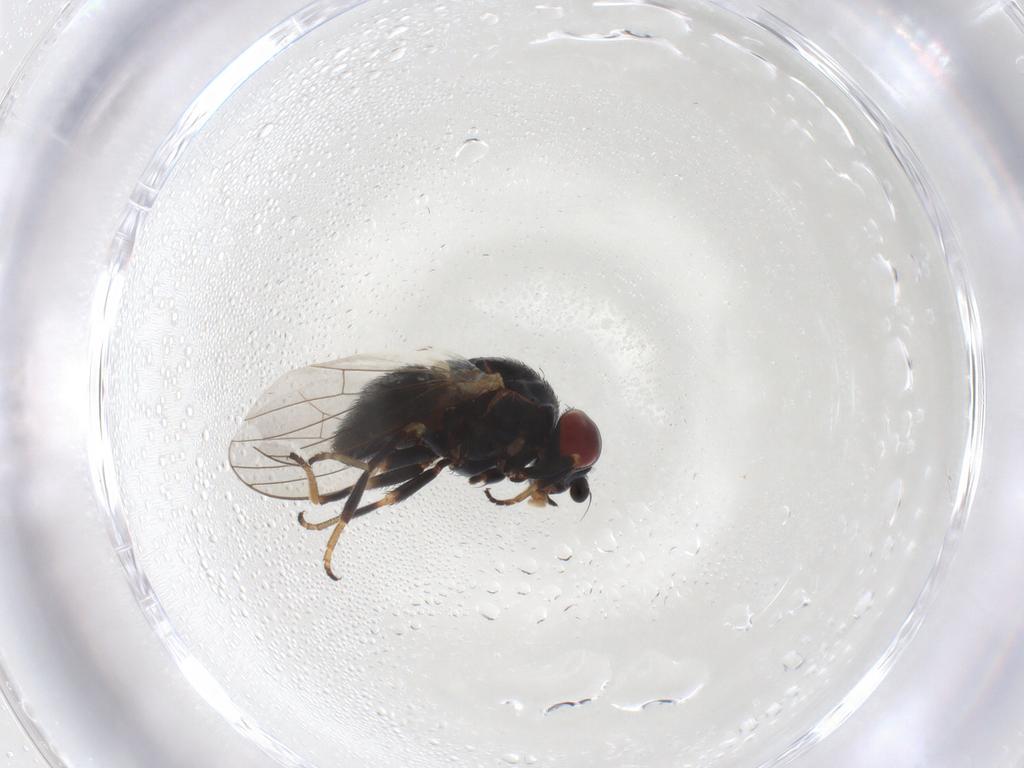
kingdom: Animalia
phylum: Arthropoda
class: Insecta
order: Diptera
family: Chamaemyiidae
